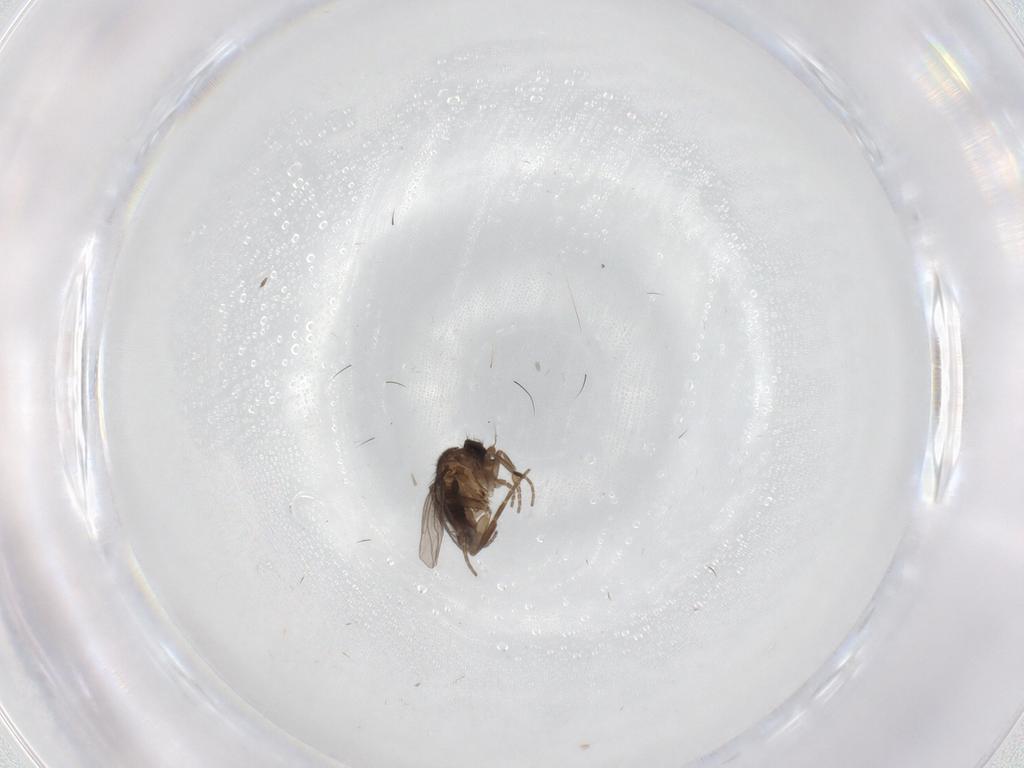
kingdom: Animalia
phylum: Arthropoda
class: Insecta
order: Diptera
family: Phoridae
